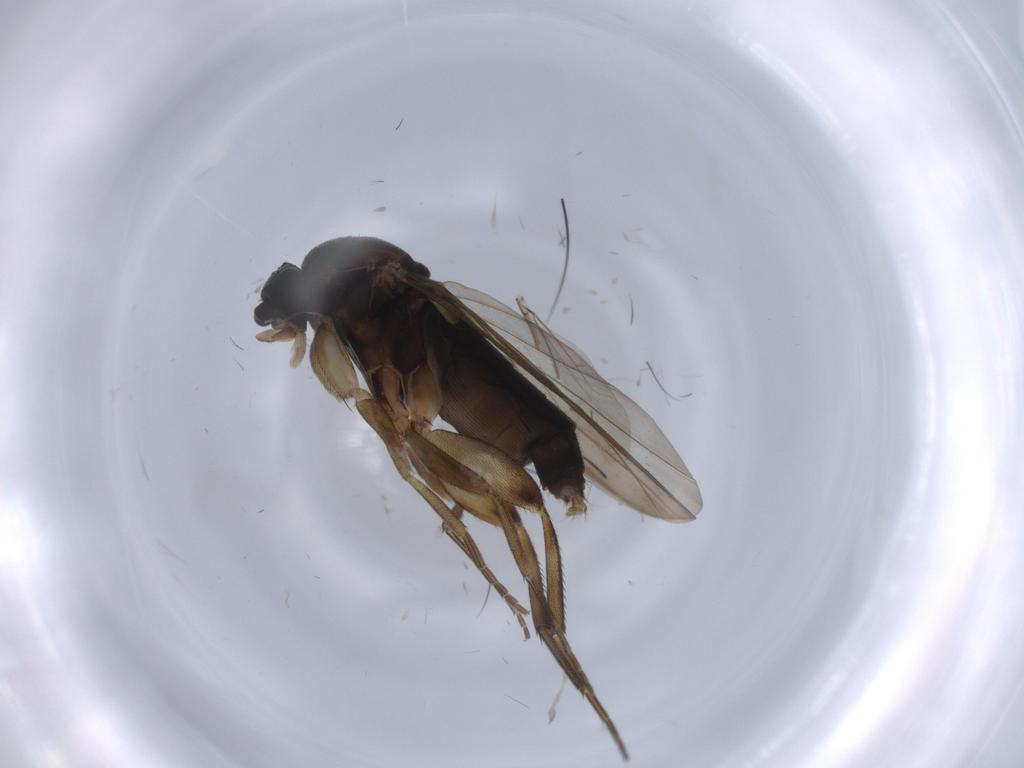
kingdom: Animalia
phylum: Arthropoda
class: Insecta
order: Diptera
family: Phoridae
